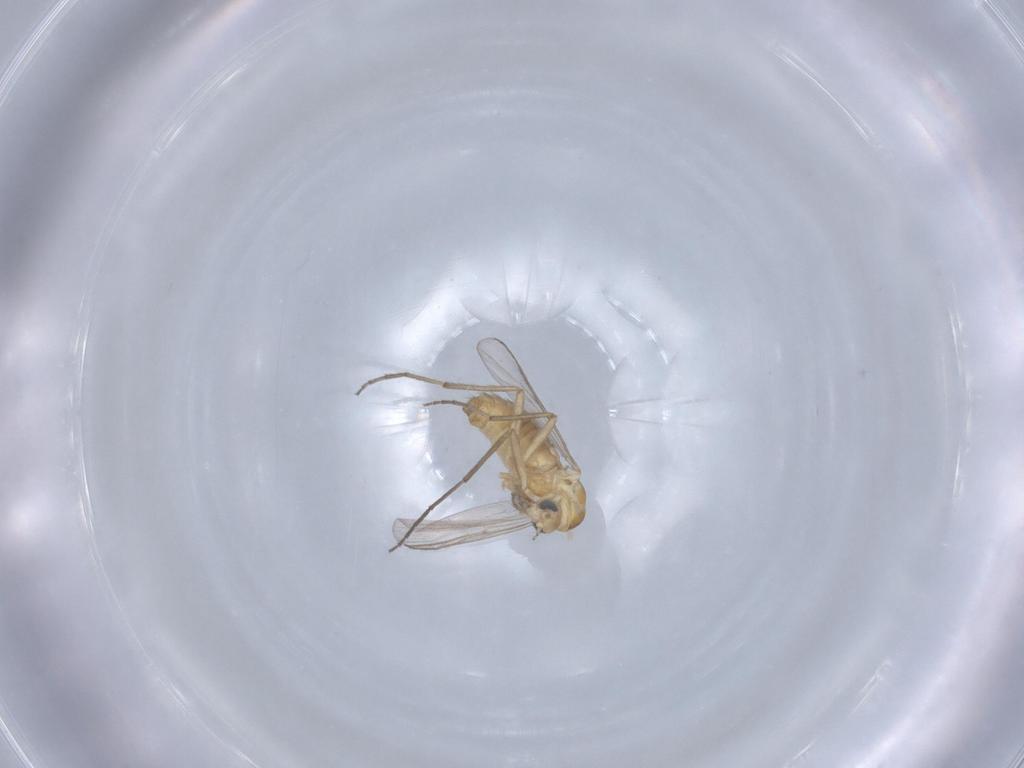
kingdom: Animalia
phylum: Arthropoda
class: Insecta
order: Diptera
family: Chironomidae
